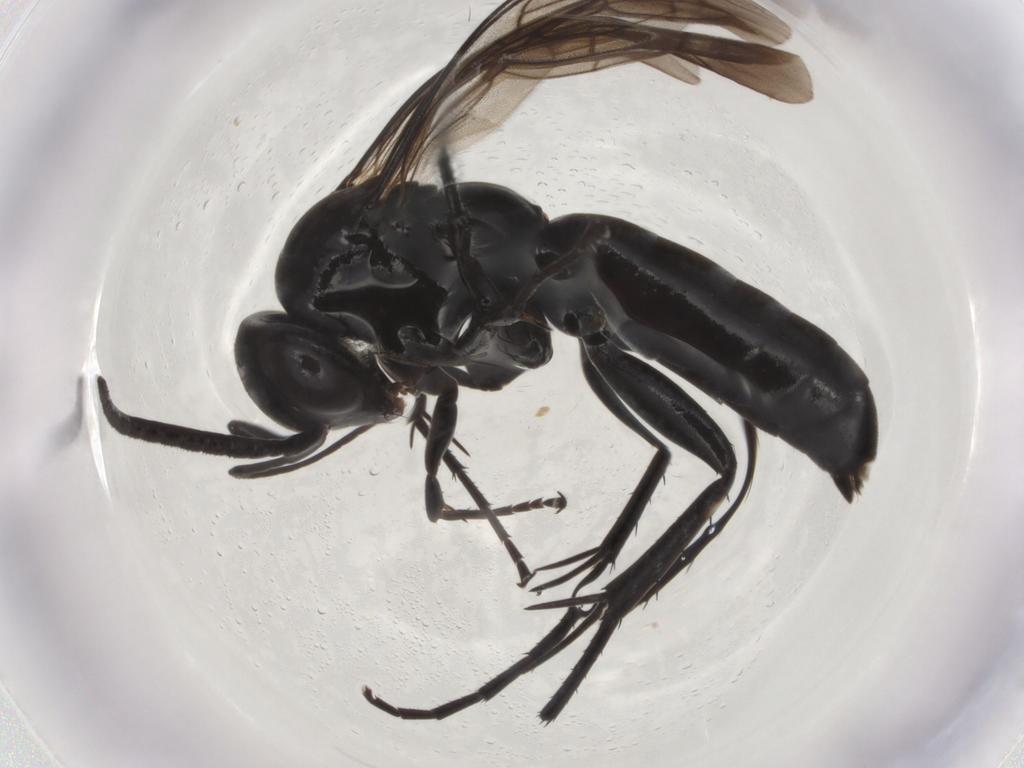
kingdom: Animalia
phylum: Arthropoda
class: Insecta
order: Hymenoptera
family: Pompilidae
